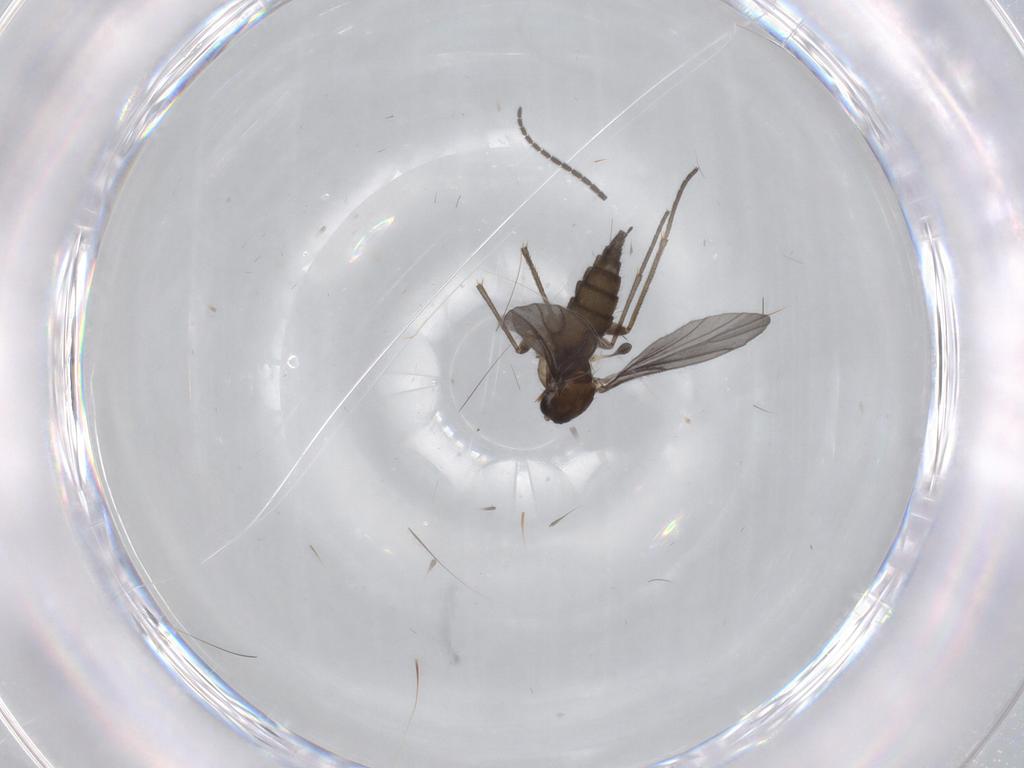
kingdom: Animalia
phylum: Arthropoda
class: Insecta
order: Diptera
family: Sciaridae
